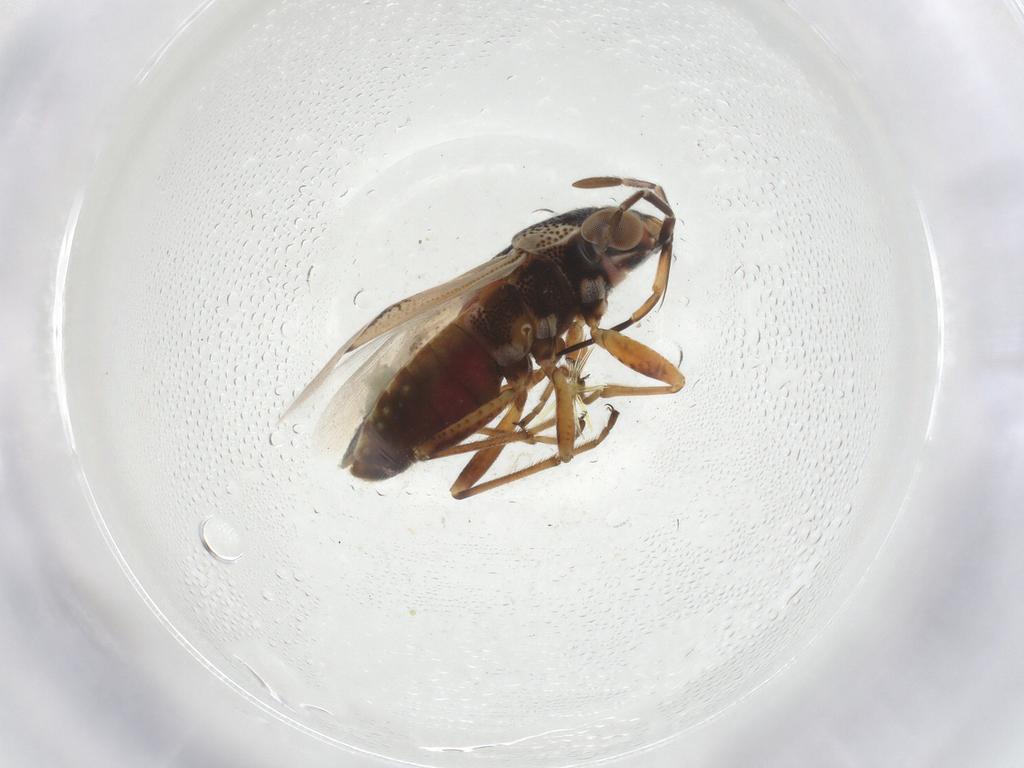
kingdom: Animalia
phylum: Arthropoda
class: Insecta
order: Hemiptera
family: Geocoridae
